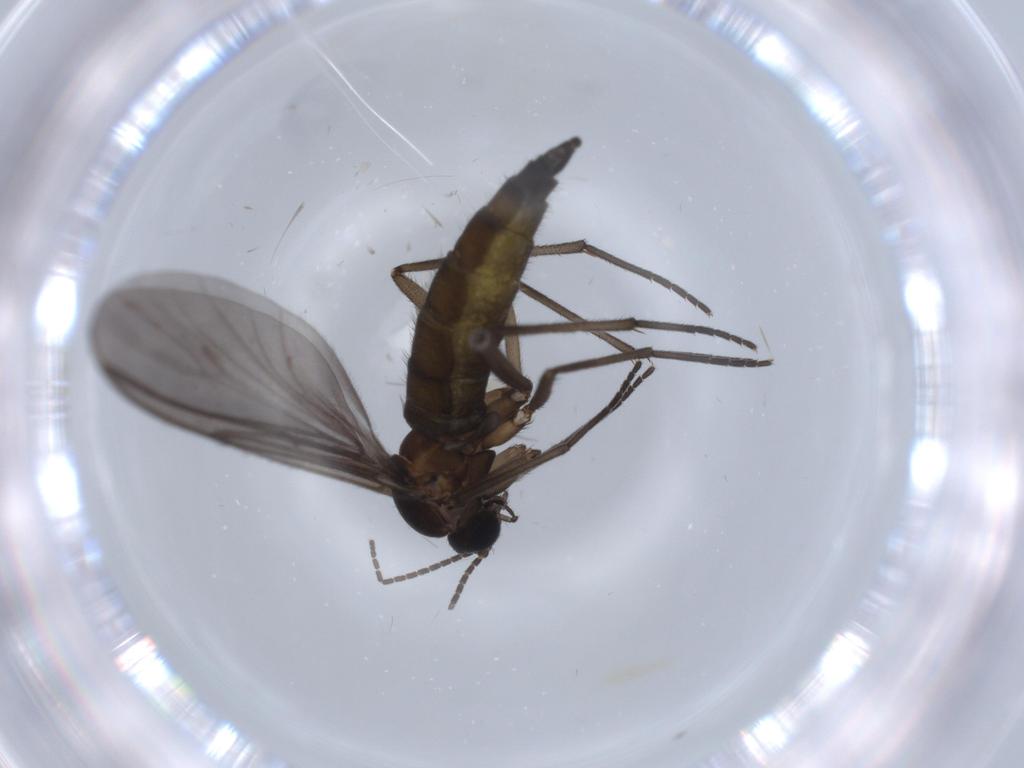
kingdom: Animalia
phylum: Arthropoda
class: Insecta
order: Diptera
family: Sciaridae
